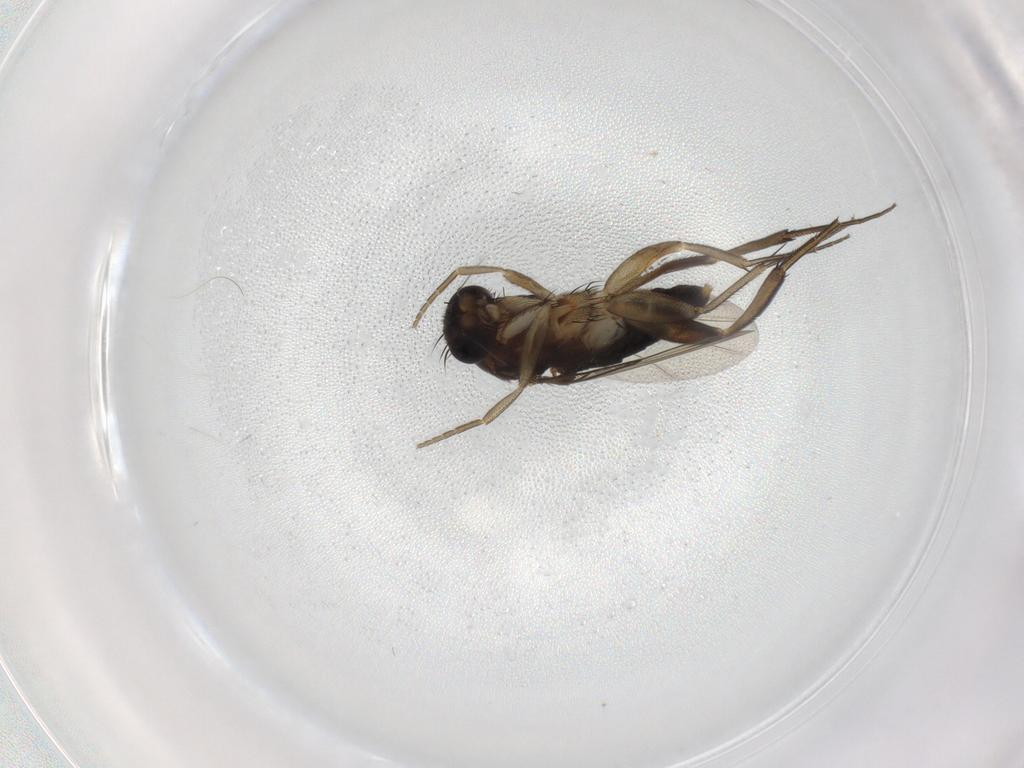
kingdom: Animalia
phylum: Arthropoda
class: Insecta
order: Diptera
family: Phoridae
